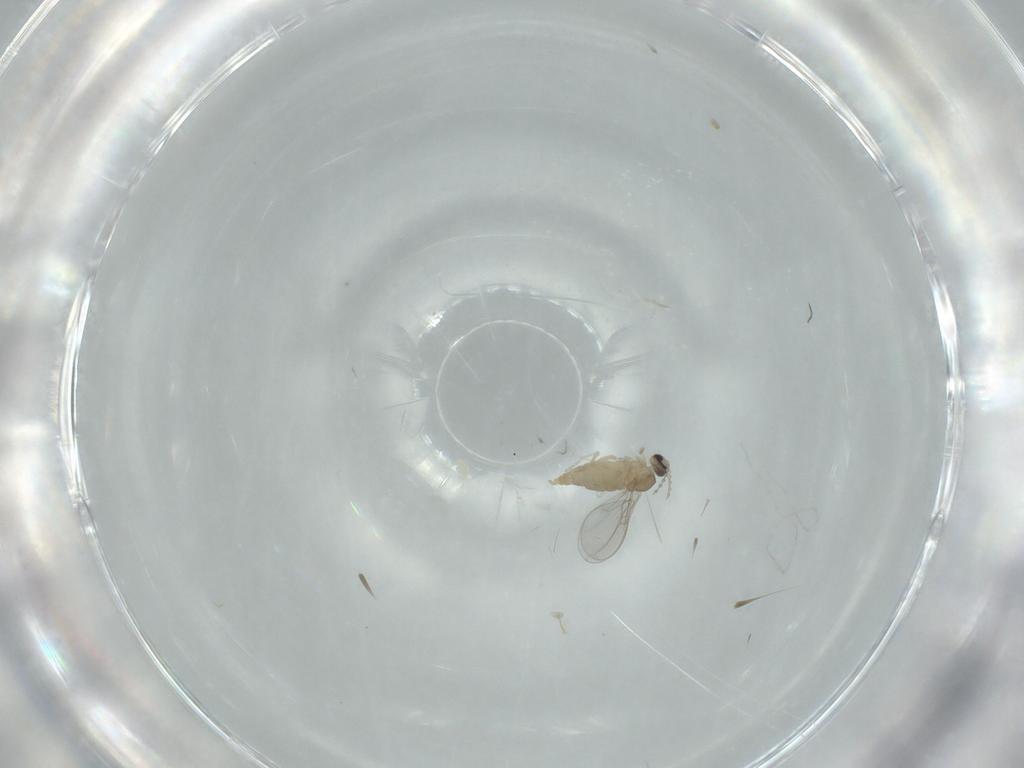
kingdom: Animalia
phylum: Arthropoda
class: Insecta
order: Diptera
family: Cecidomyiidae
